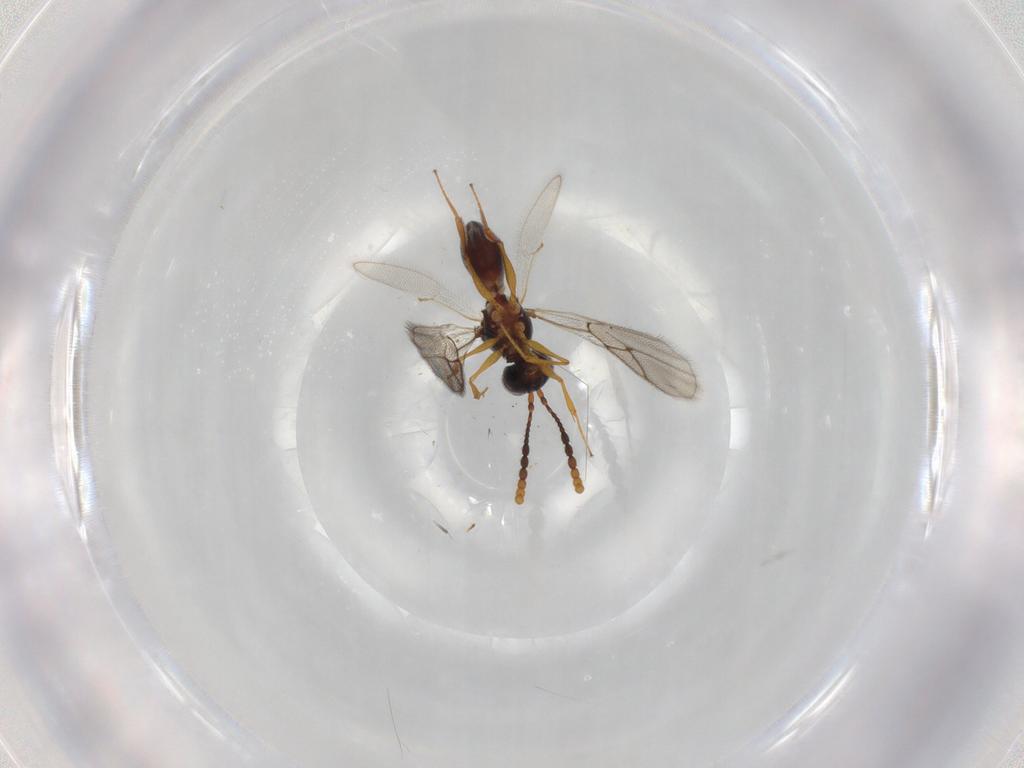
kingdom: Animalia
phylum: Arthropoda
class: Insecta
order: Hymenoptera
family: Figitidae
